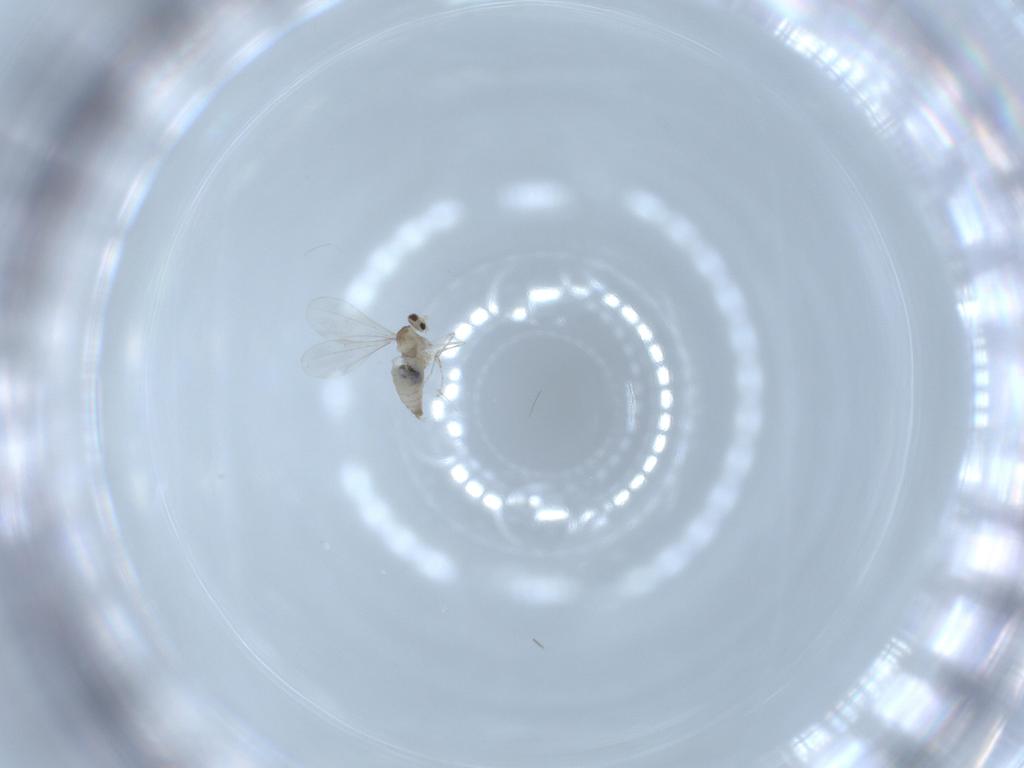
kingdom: Animalia
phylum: Arthropoda
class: Insecta
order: Diptera
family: Cecidomyiidae
